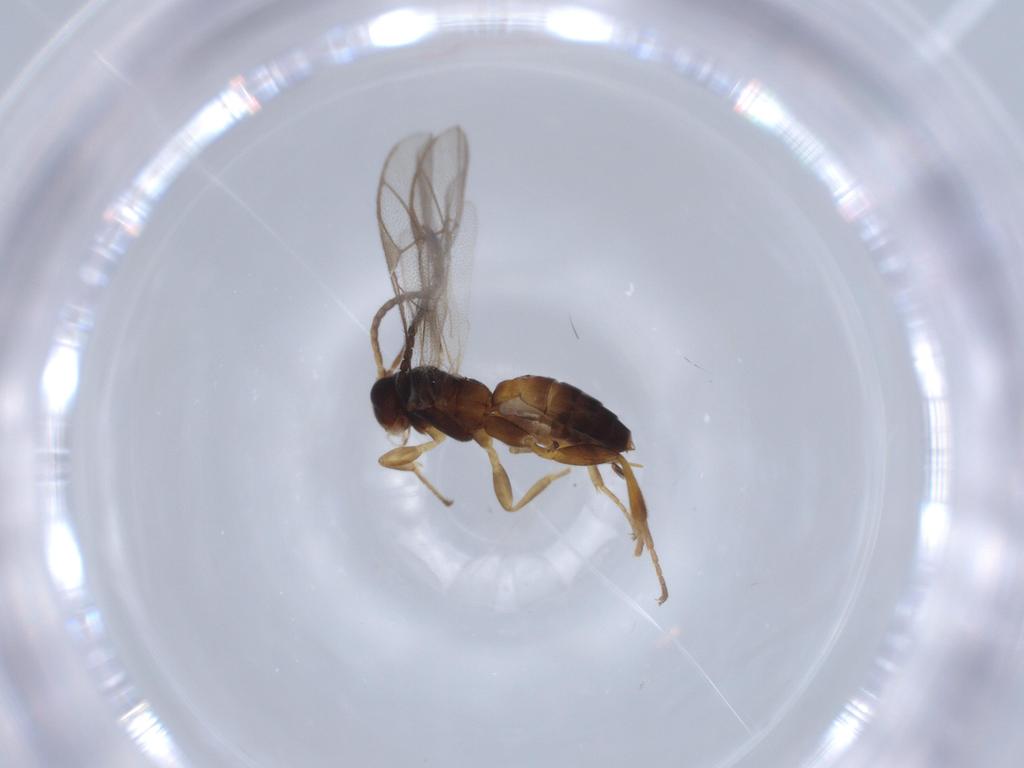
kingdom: Animalia
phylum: Arthropoda
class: Insecta
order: Hymenoptera
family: Ichneumonidae
